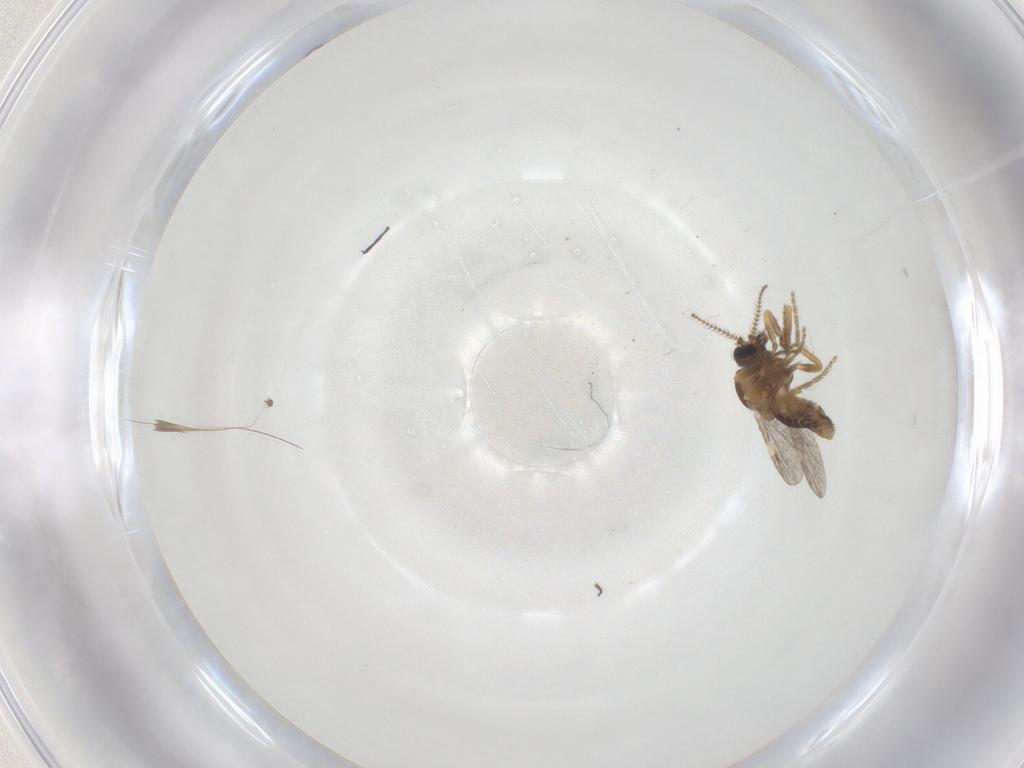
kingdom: Animalia
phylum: Arthropoda
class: Insecta
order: Diptera
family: Ceratopogonidae
